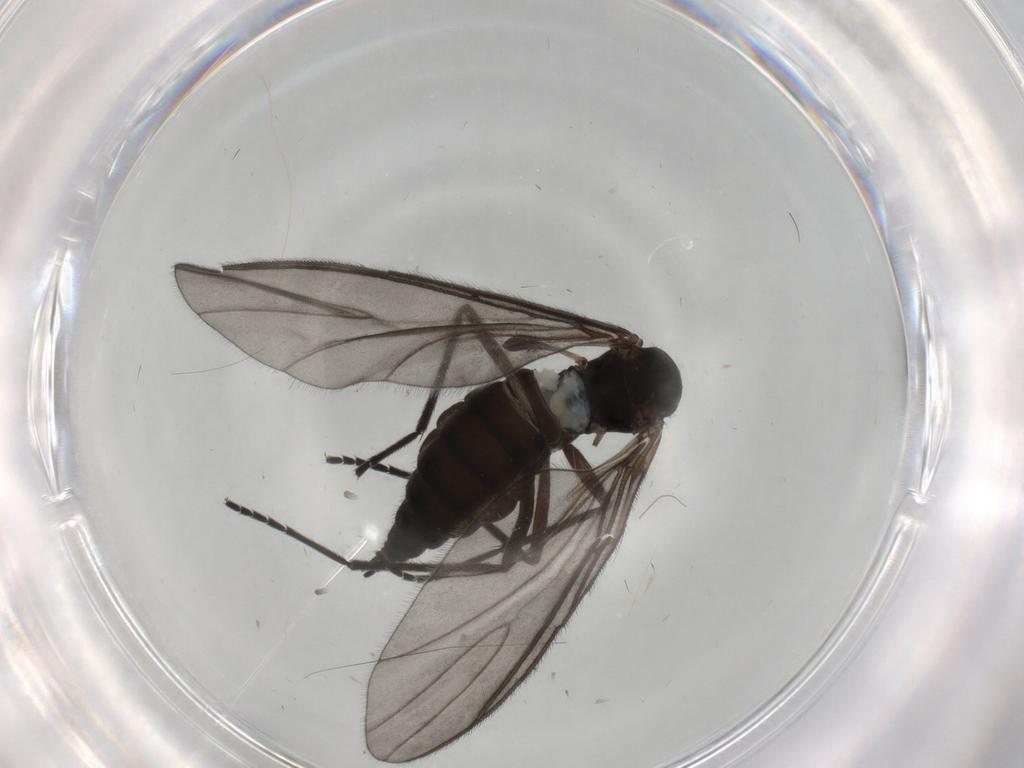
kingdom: Animalia
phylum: Arthropoda
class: Insecta
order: Diptera
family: Sciaridae
